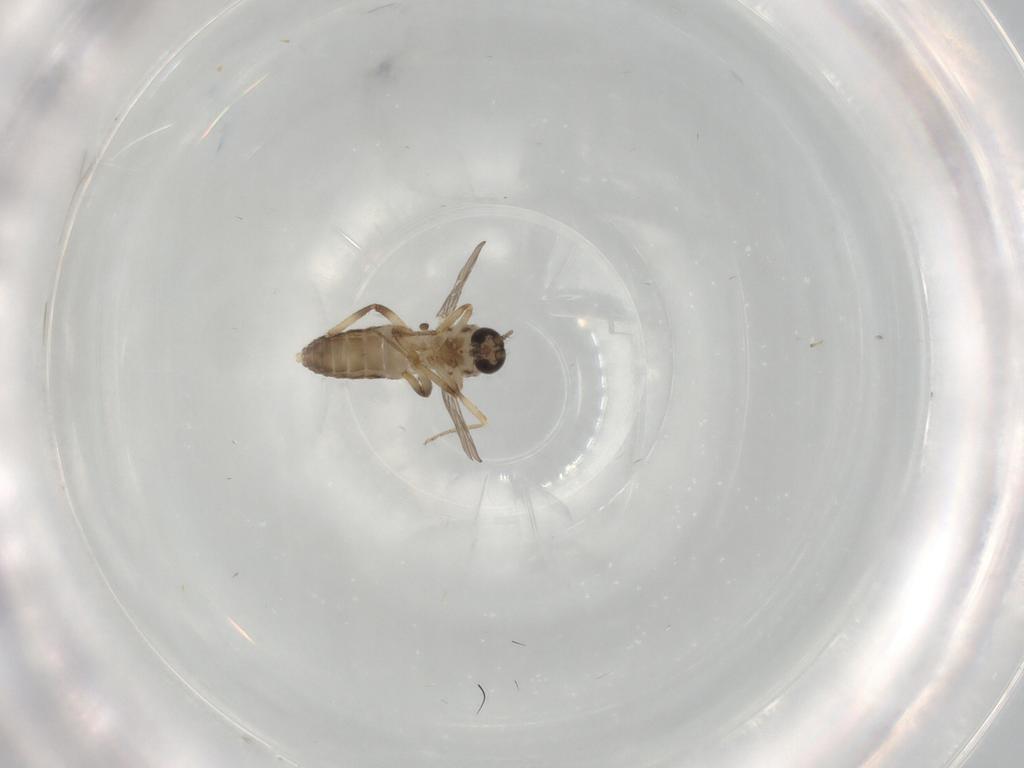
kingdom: Animalia
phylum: Arthropoda
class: Insecta
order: Diptera
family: Ceratopogonidae
